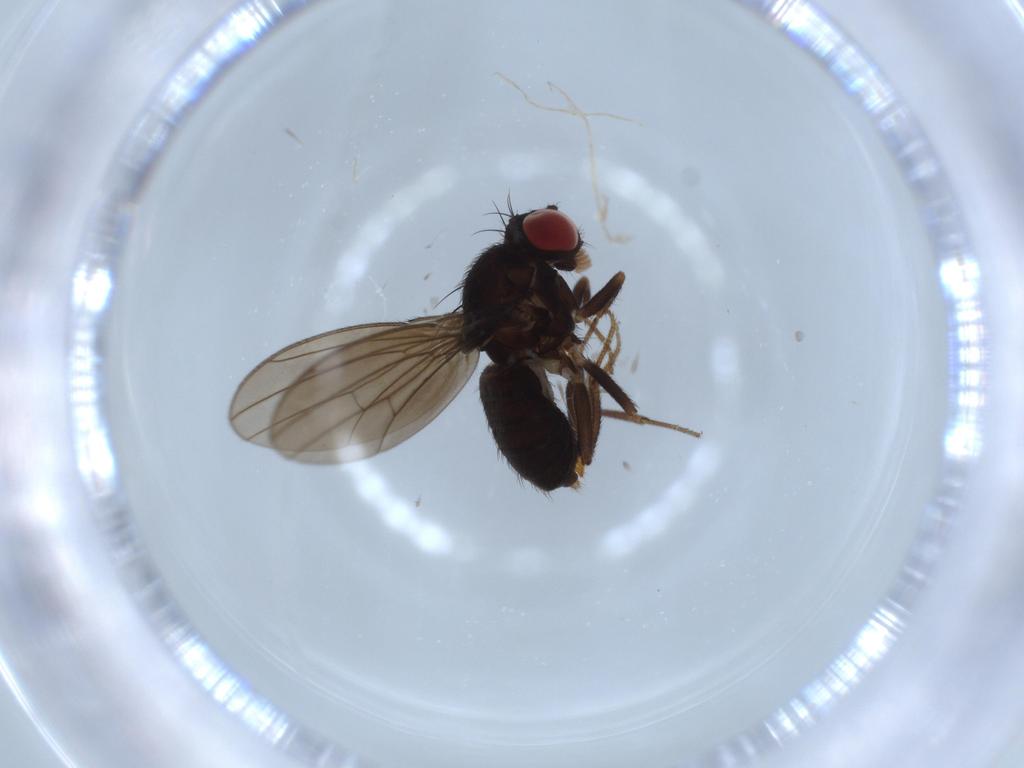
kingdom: Animalia
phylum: Arthropoda
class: Insecta
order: Diptera
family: Drosophilidae
